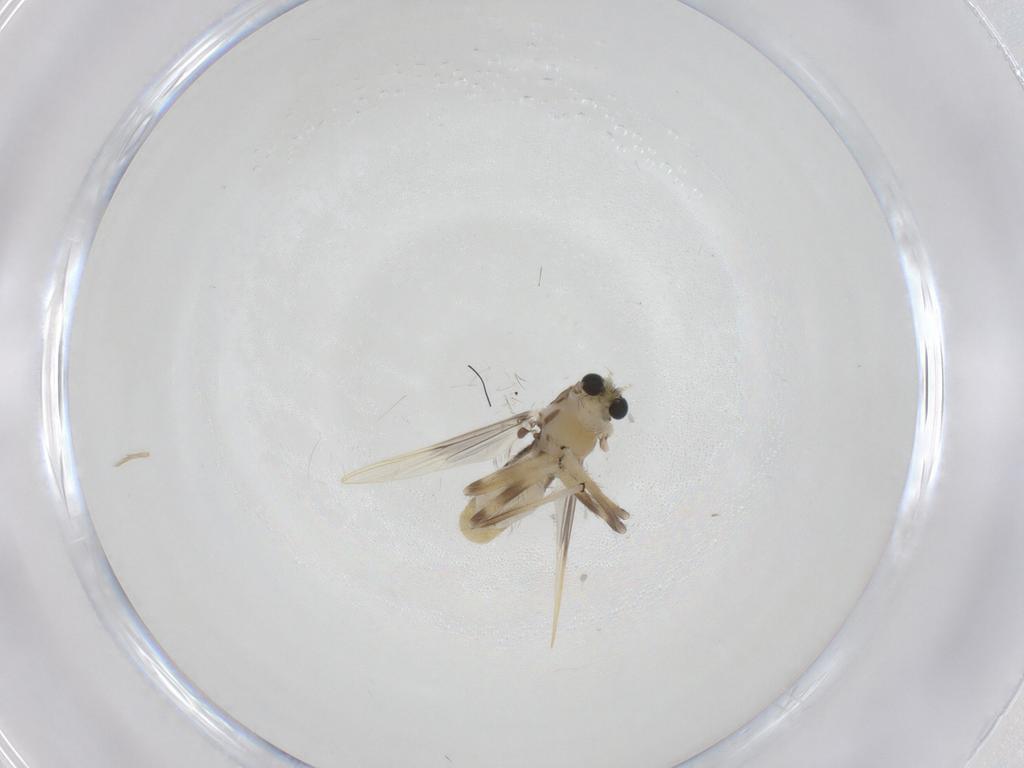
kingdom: Animalia
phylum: Arthropoda
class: Insecta
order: Diptera
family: Chironomidae
